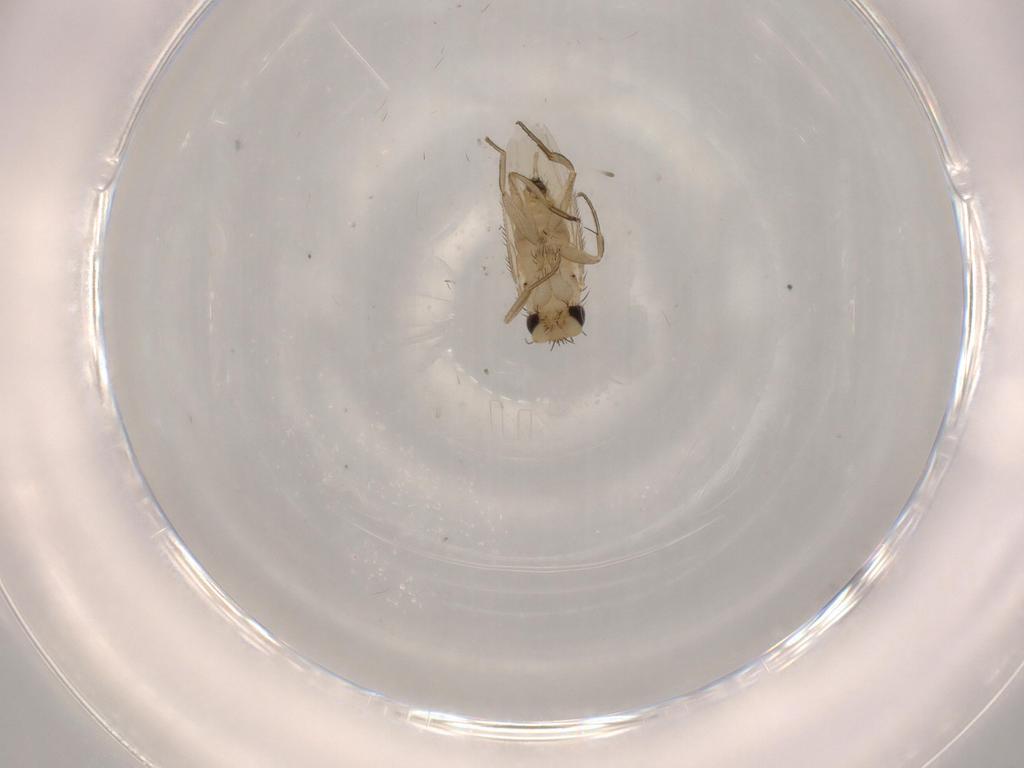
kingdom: Animalia
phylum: Arthropoda
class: Insecta
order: Diptera
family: Phoridae
